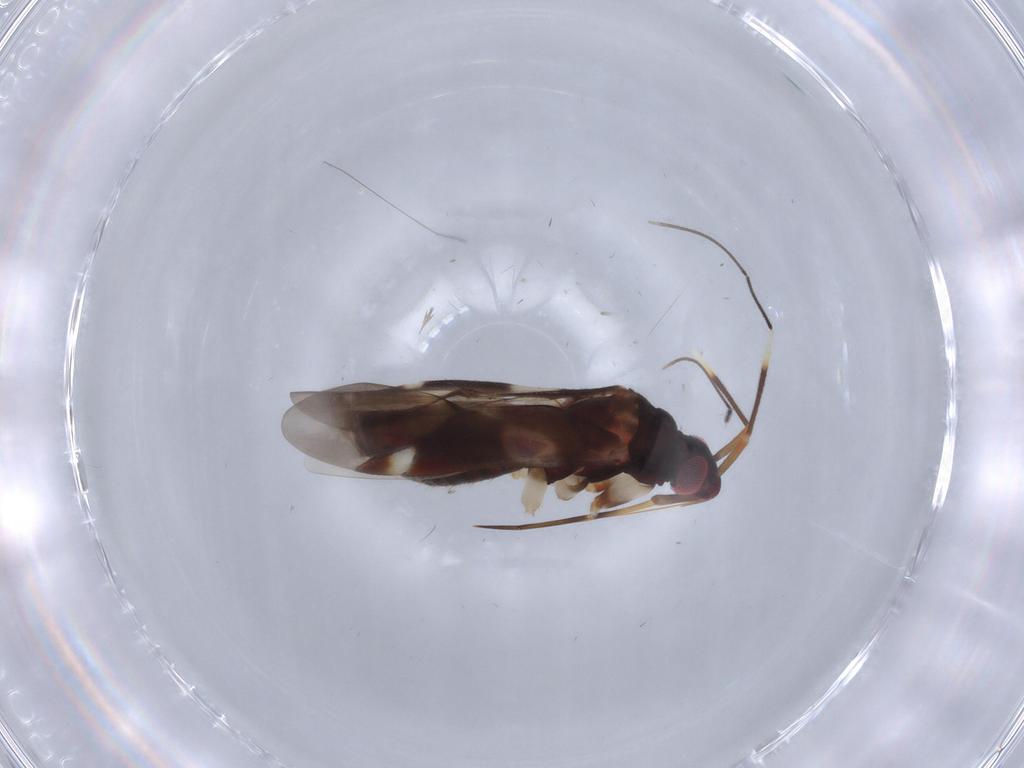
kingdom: Animalia
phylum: Arthropoda
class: Insecta
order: Hemiptera
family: Miridae
